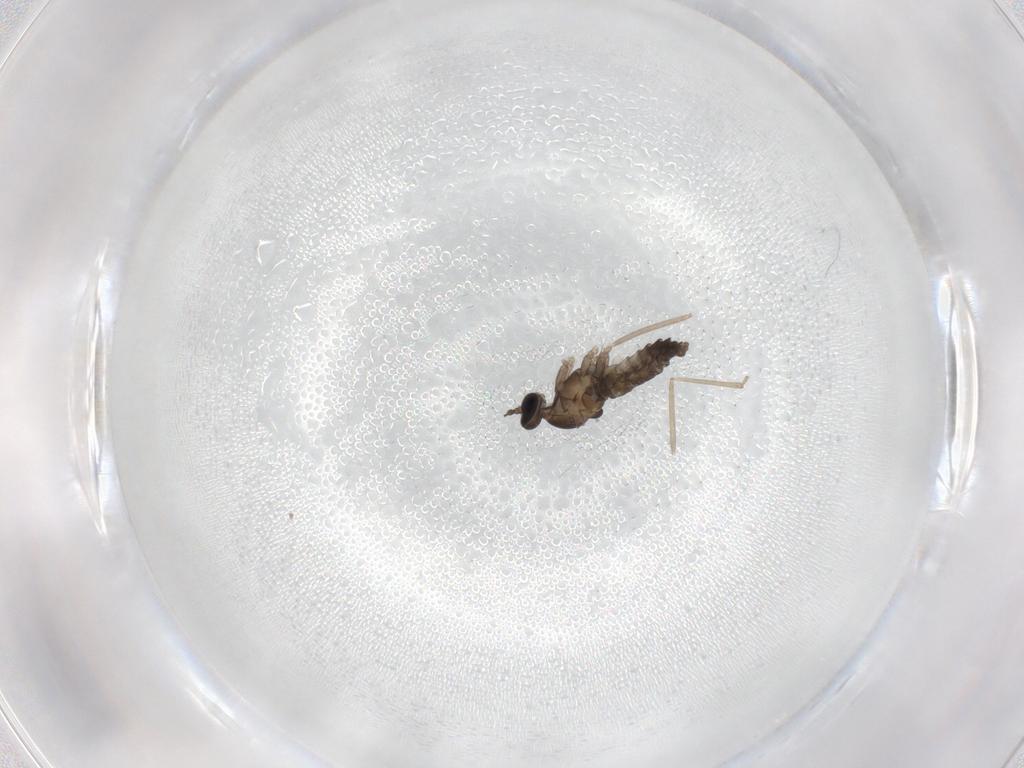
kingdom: Animalia
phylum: Arthropoda
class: Insecta
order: Diptera
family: Cecidomyiidae
